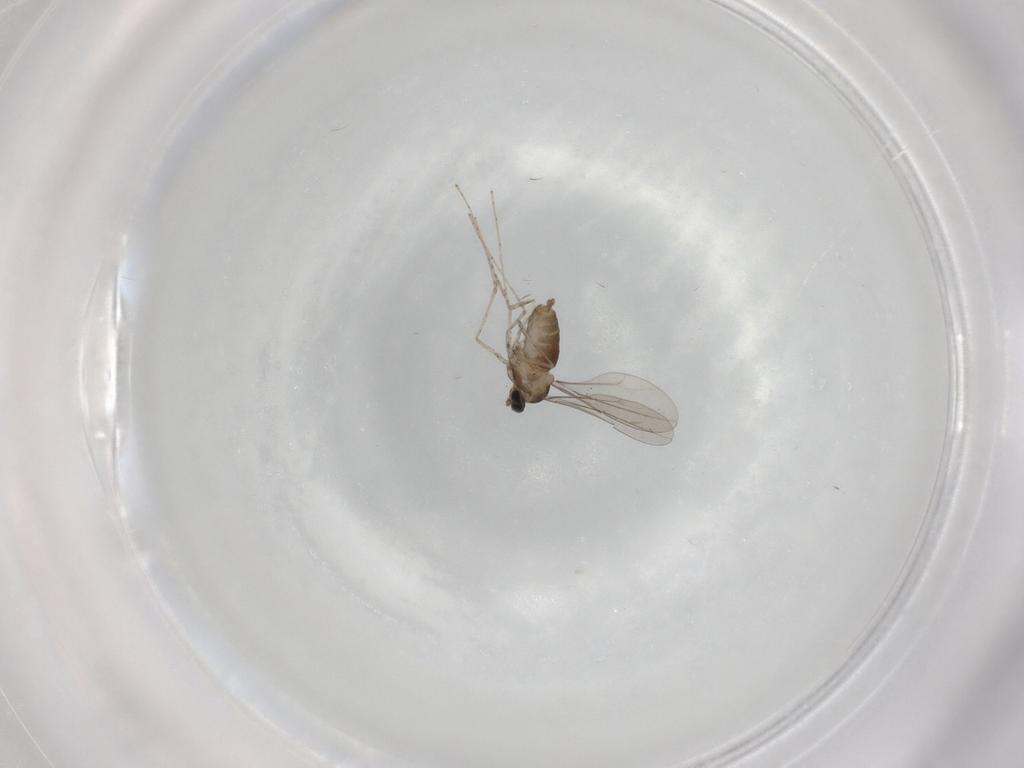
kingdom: Animalia
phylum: Arthropoda
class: Insecta
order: Diptera
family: Cecidomyiidae
